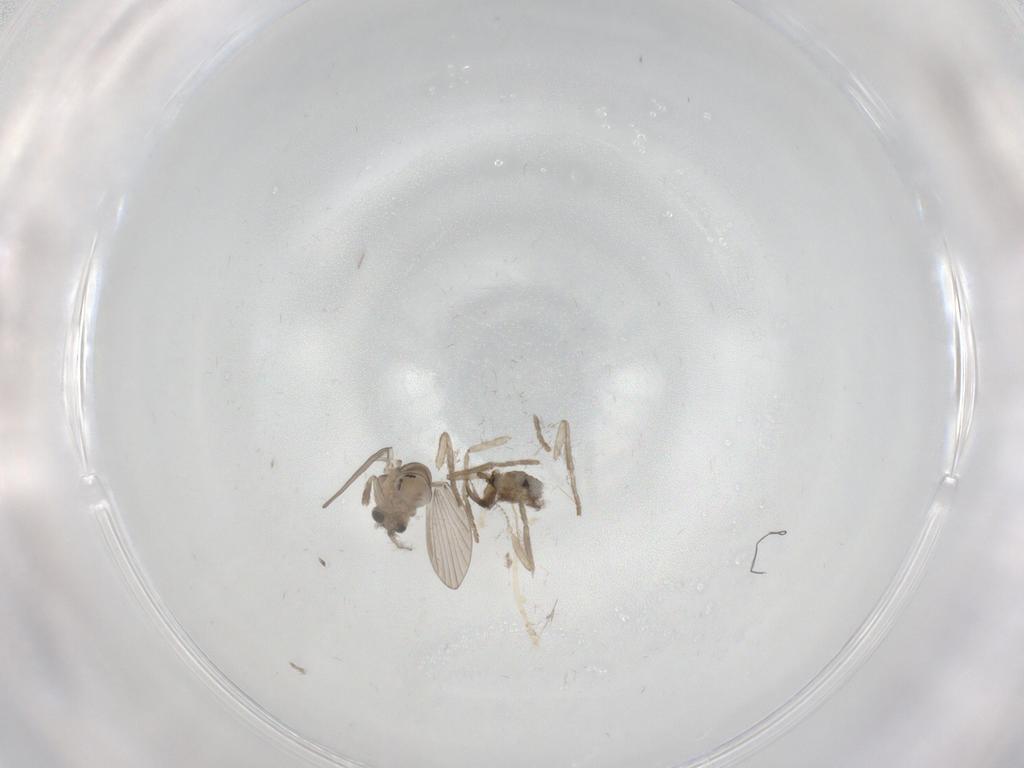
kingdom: Animalia
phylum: Arthropoda
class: Insecta
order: Diptera
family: Psychodidae
